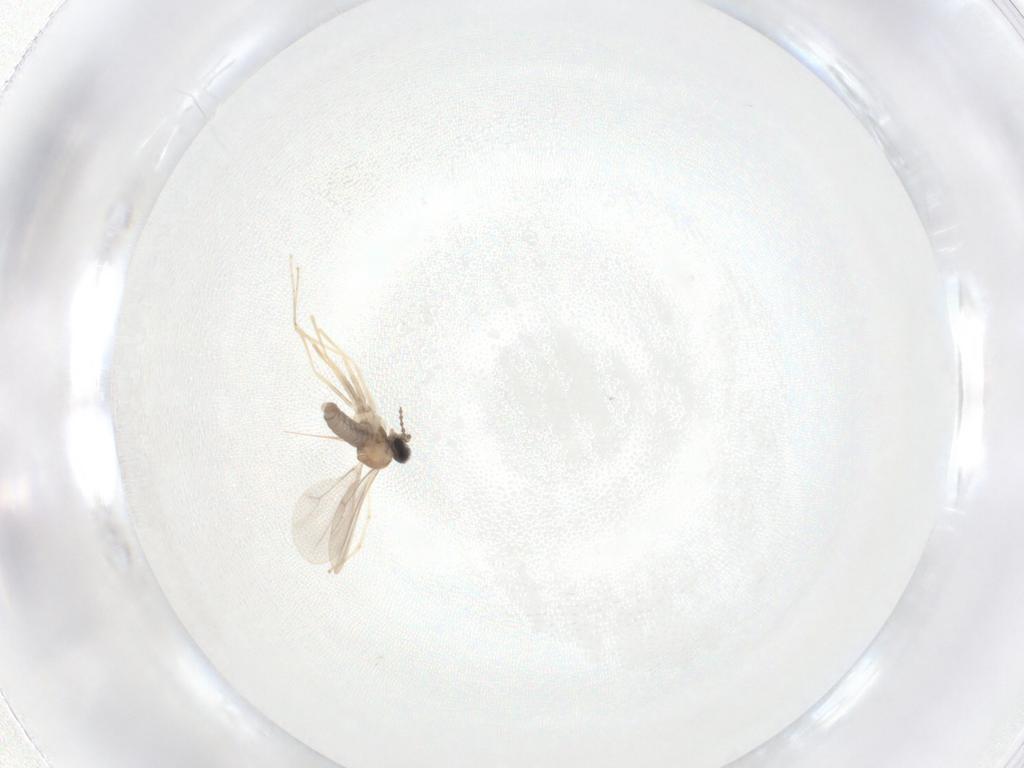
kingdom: Animalia
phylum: Arthropoda
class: Insecta
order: Diptera
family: Cecidomyiidae
